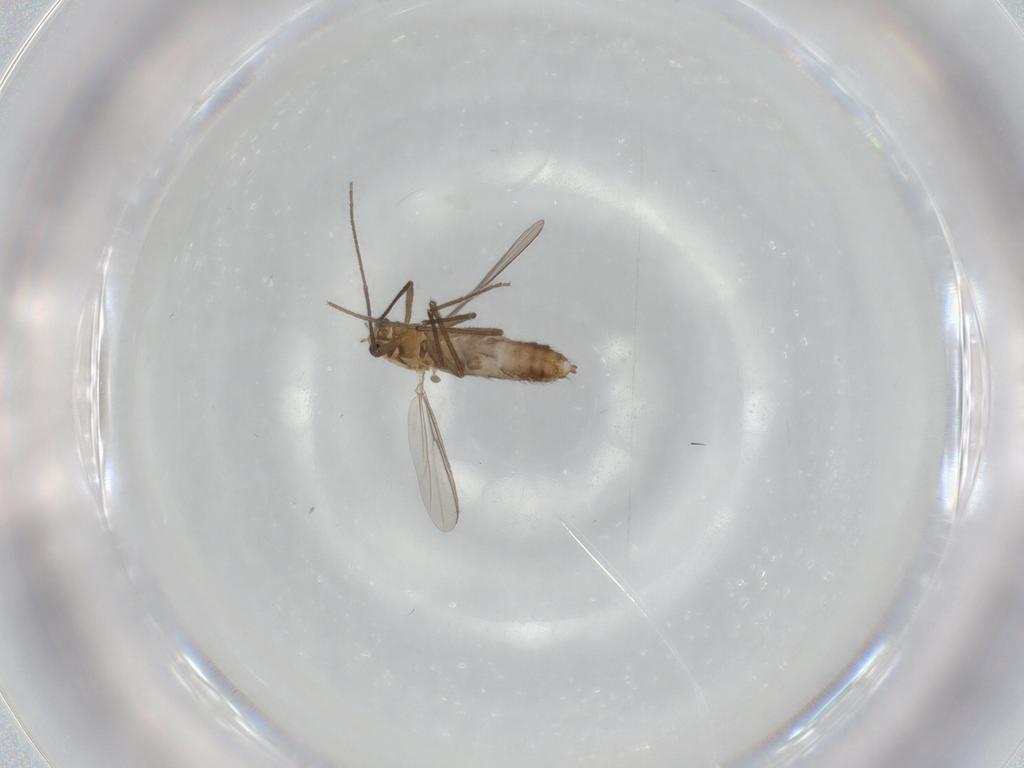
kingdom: Animalia
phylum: Arthropoda
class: Insecta
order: Diptera
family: Chironomidae
